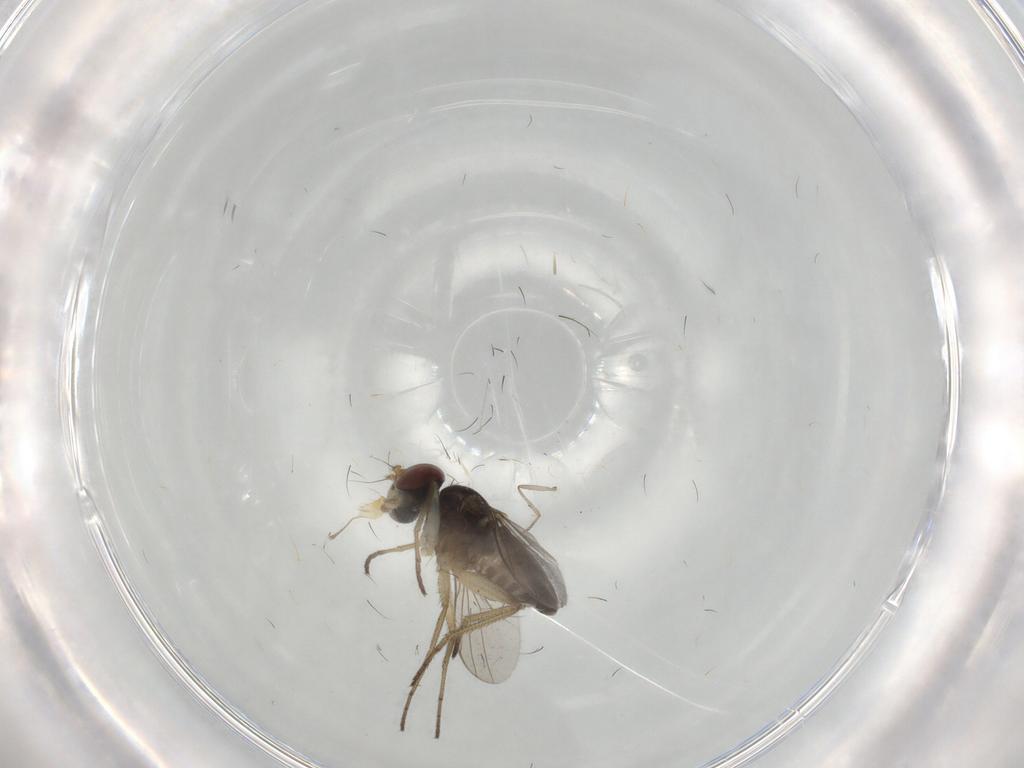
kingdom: Animalia
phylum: Arthropoda
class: Insecta
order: Diptera
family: Dolichopodidae
